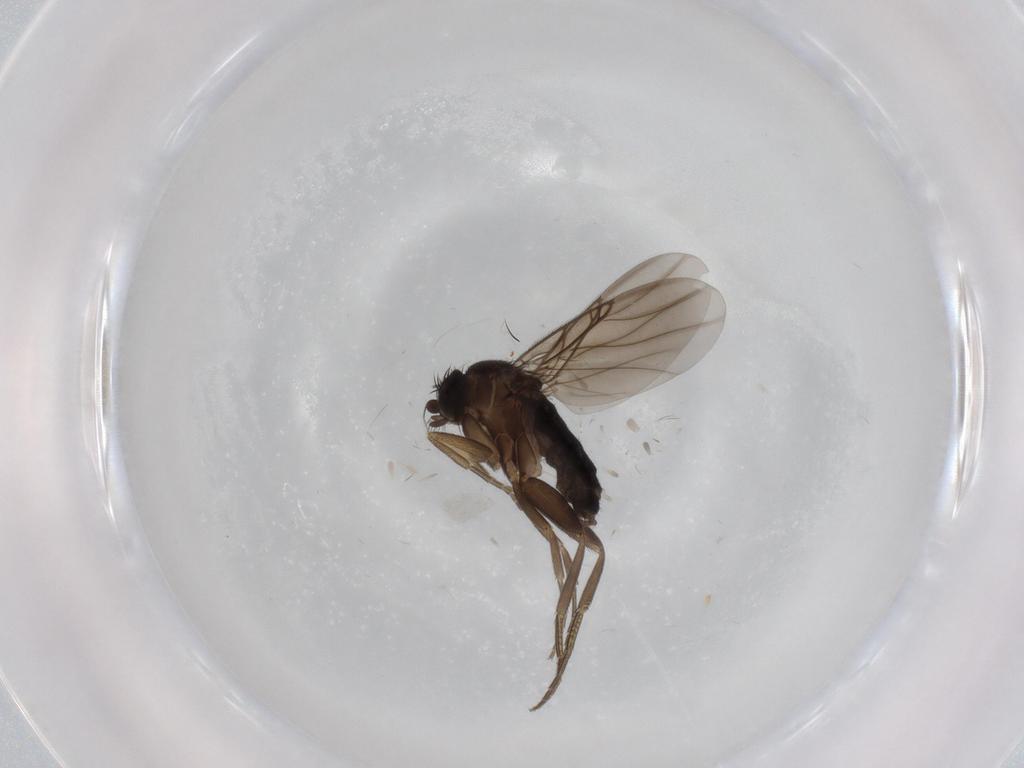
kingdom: Animalia
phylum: Arthropoda
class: Insecta
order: Diptera
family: Phoridae
